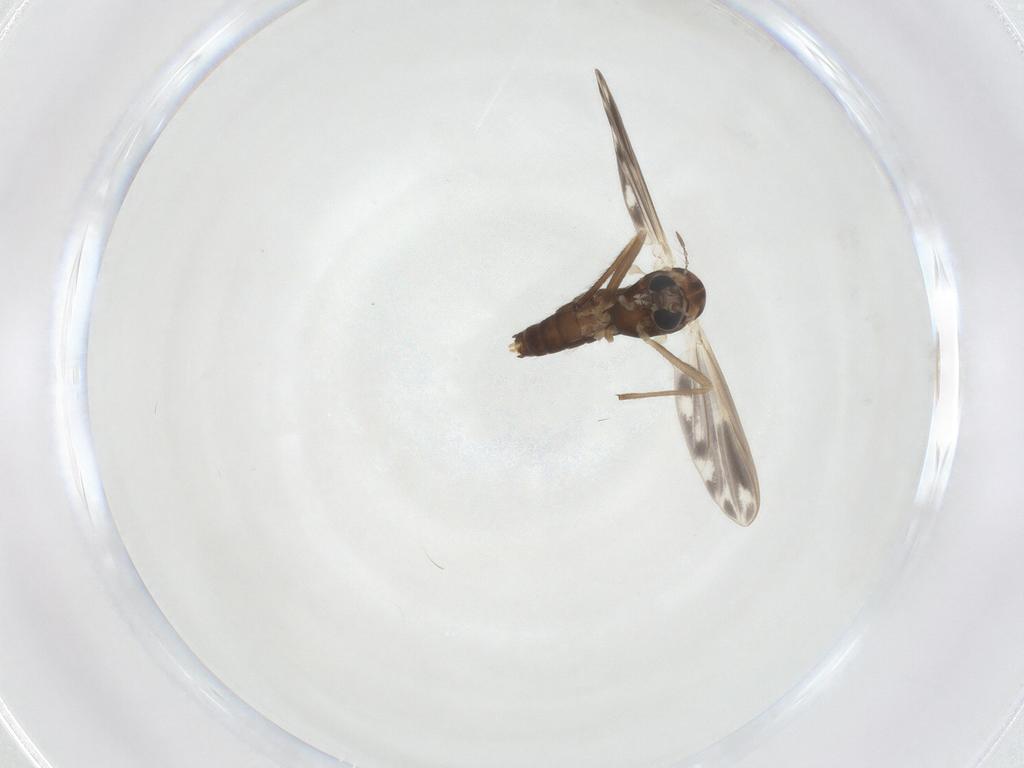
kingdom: Animalia
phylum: Arthropoda
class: Insecta
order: Diptera
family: Chironomidae
